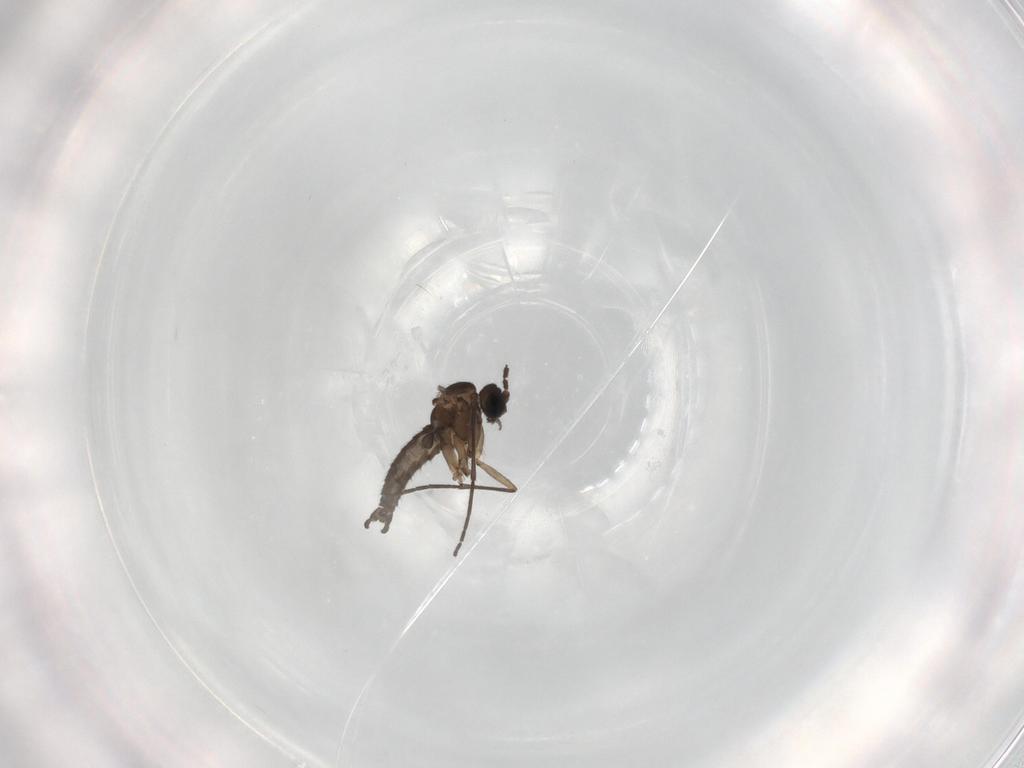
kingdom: Animalia
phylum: Arthropoda
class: Insecta
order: Diptera
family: Sciaridae
